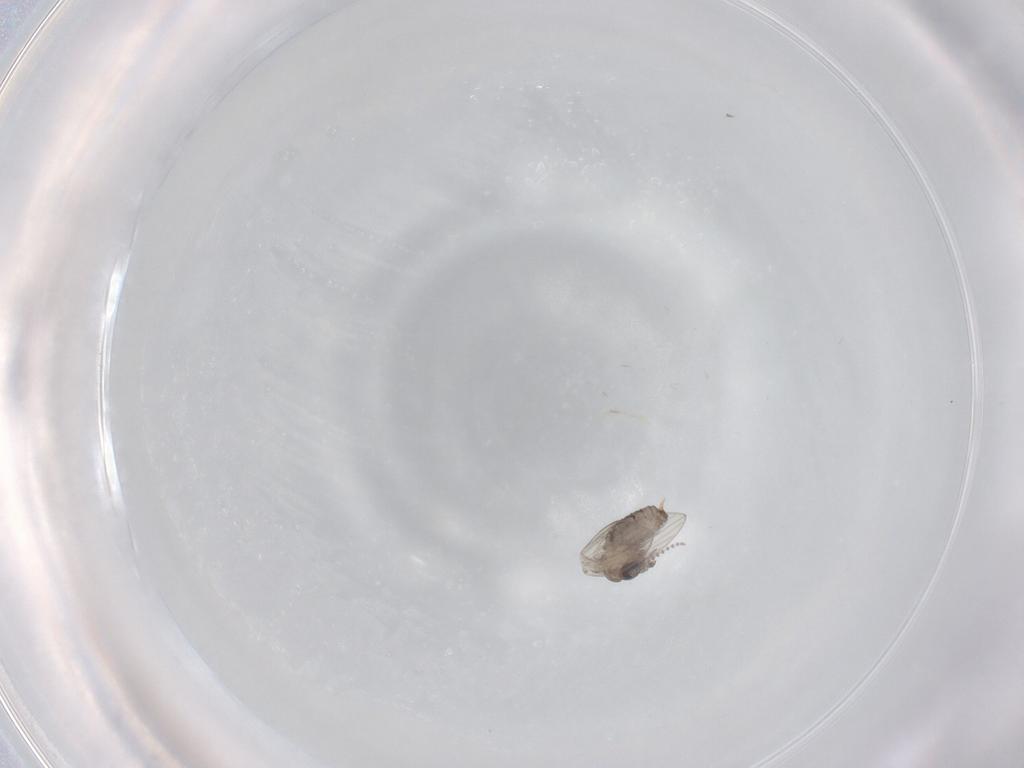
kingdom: Animalia
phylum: Arthropoda
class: Insecta
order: Diptera
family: Psychodidae
